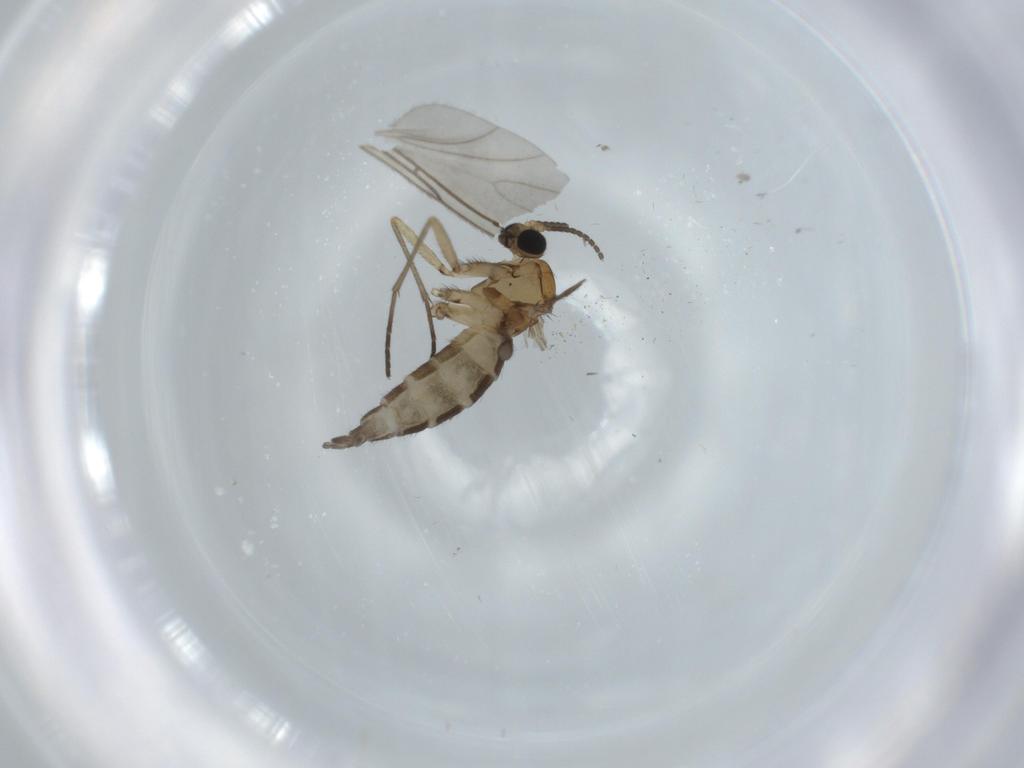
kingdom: Animalia
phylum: Arthropoda
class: Insecta
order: Diptera
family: Sciaridae
